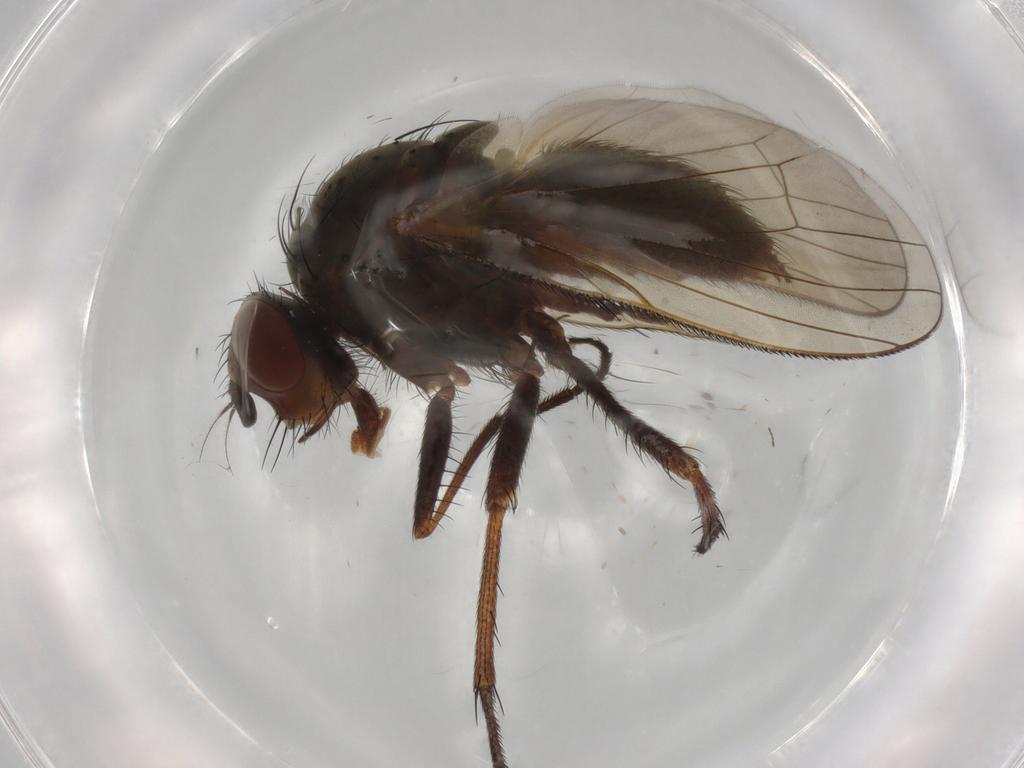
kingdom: Animalia
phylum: Arthropoda
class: Insecta
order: Diptera
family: Anthomyiidae
